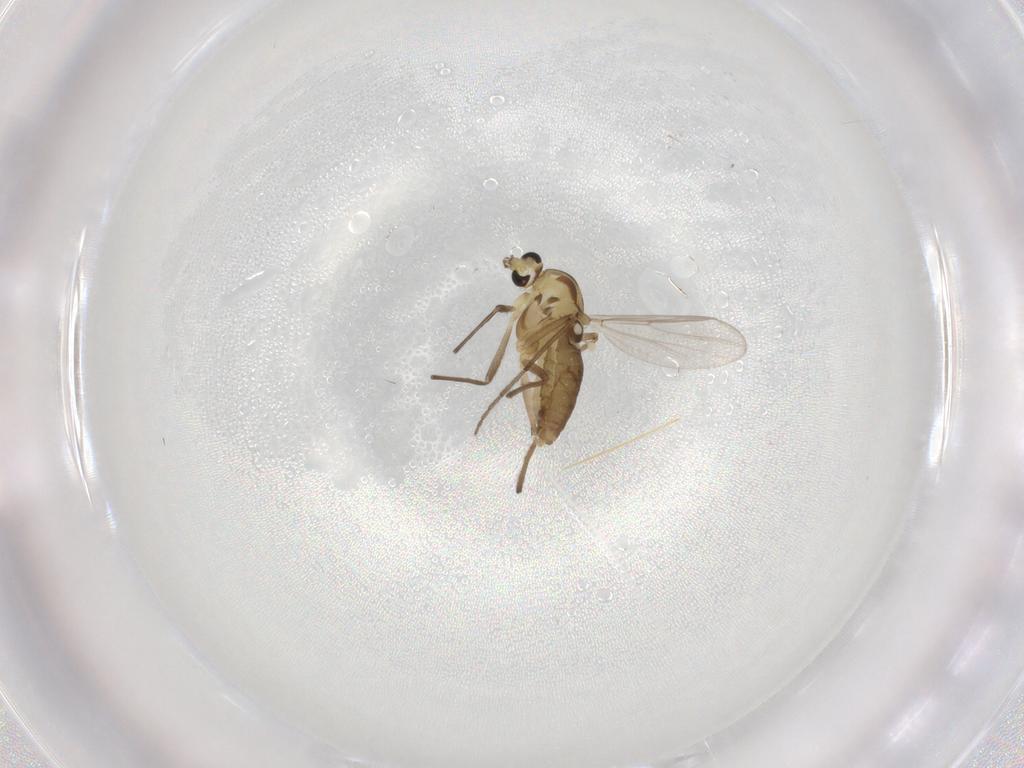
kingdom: Animalia
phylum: Arthropoda
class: Insecta
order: Diptera
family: Chironomidae
